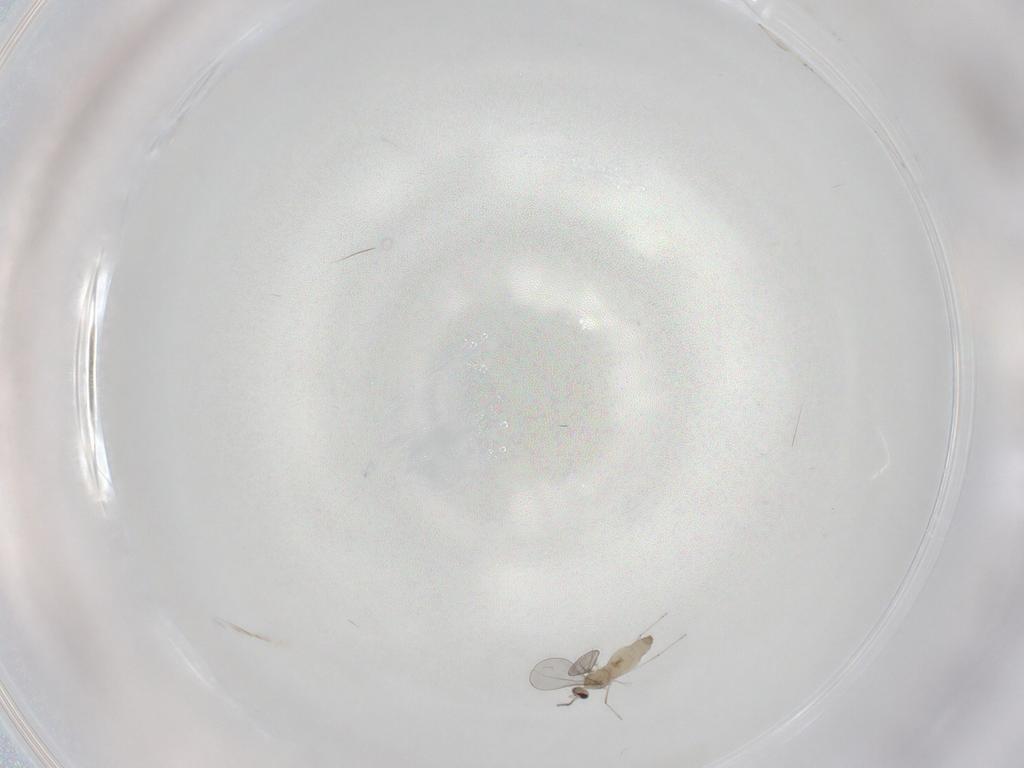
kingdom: Animalia
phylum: Arthropoda
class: Insecta
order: Diptera
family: Cecidomyiidae
